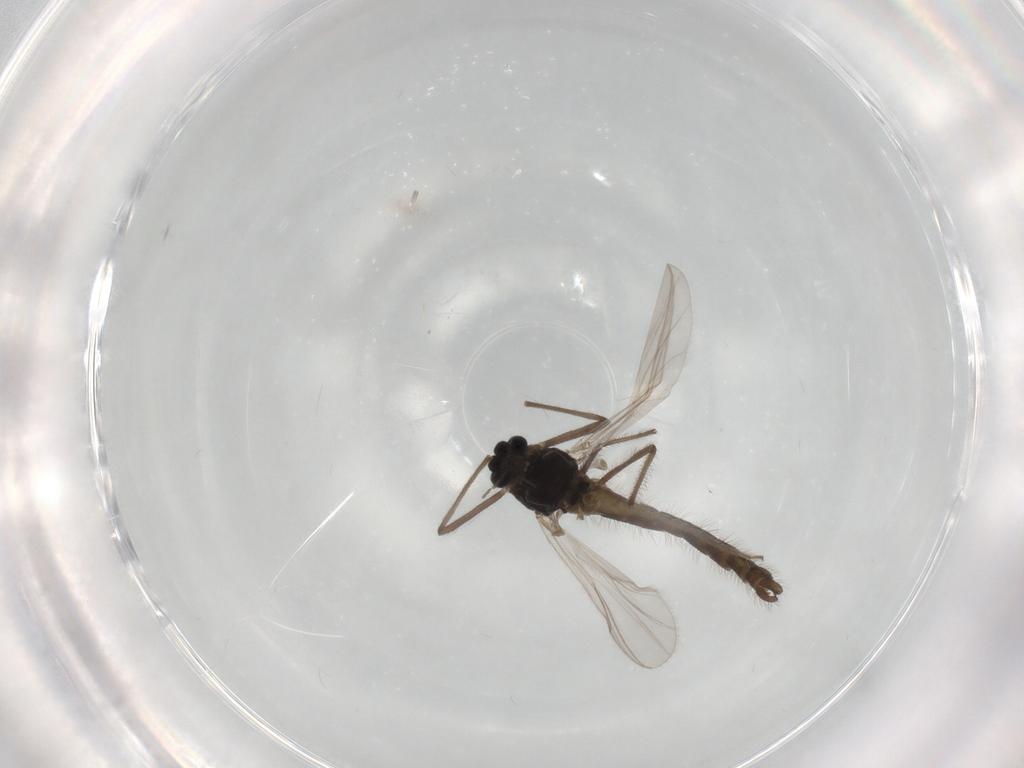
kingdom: Animalia
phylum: Arthropoda
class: Insecta
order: Diptera
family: Chironomidae
